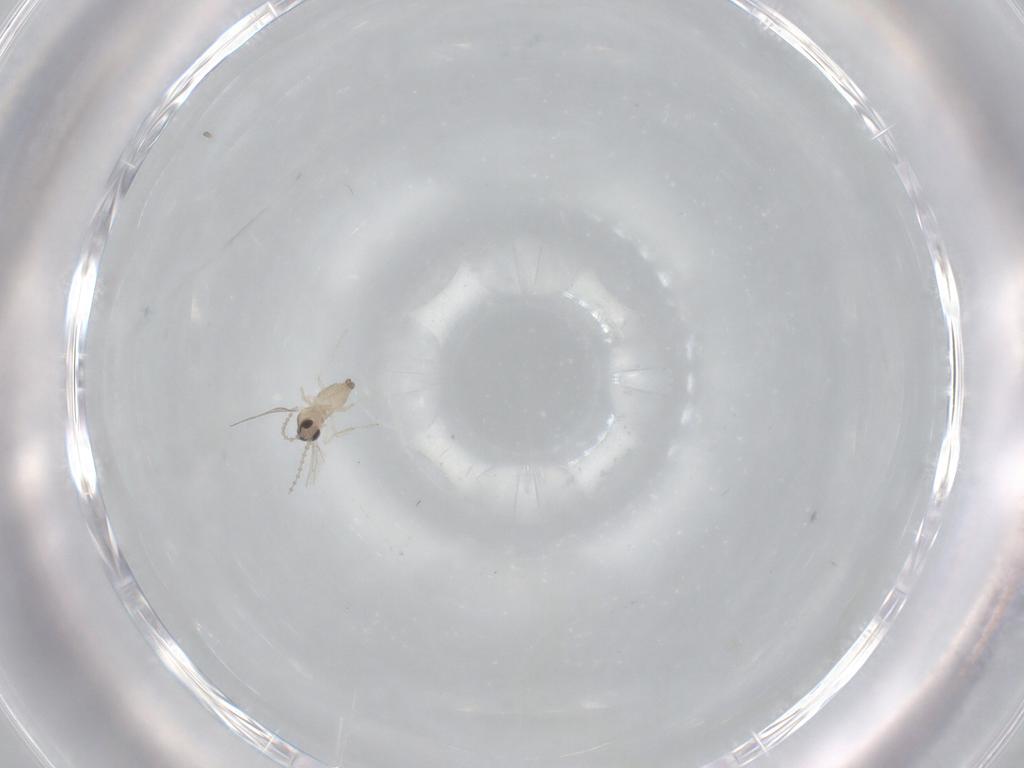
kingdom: Animalia
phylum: Arthropoda
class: Insecta
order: Diptera
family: Cecidomyiidae
